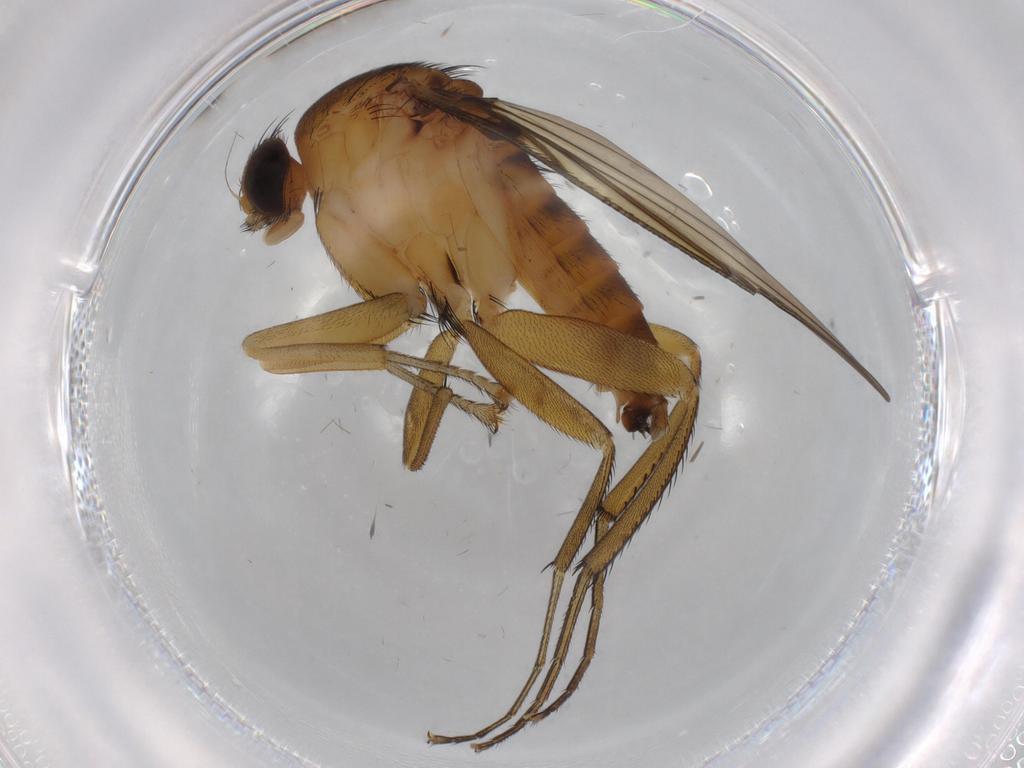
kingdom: Animalia
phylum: Arthropoda
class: Insecta
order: Diptera
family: Phoridae
